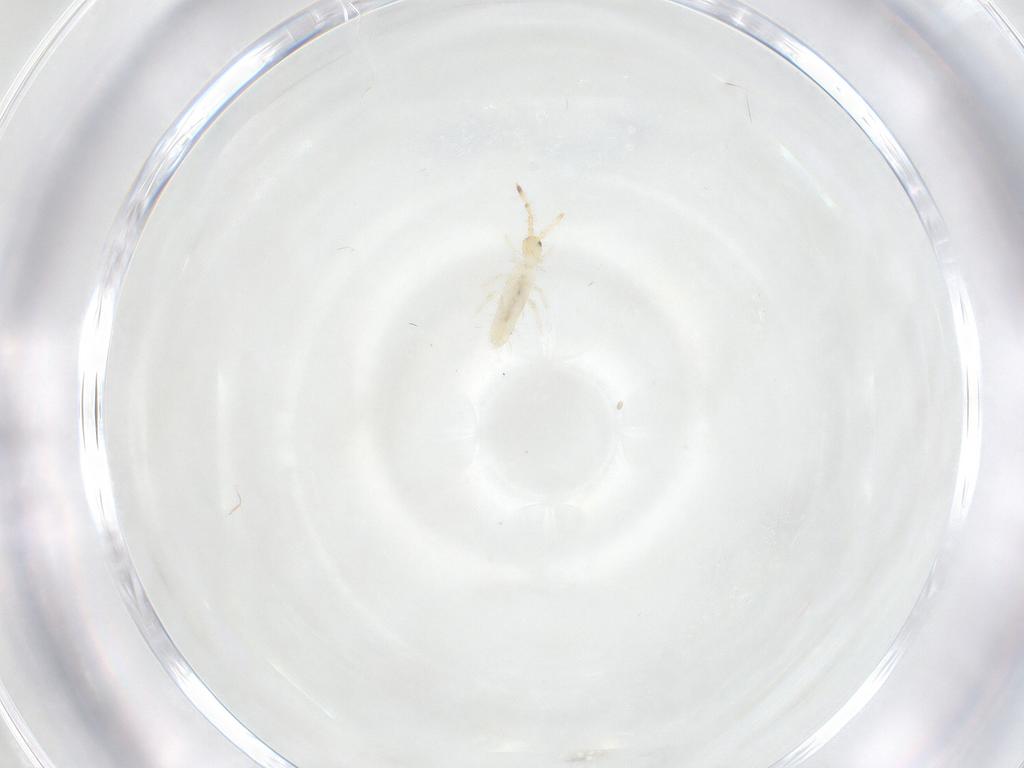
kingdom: Animalia
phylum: Arthropoda
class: Collembola
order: Entomobryomorpha
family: Entomobryidae
